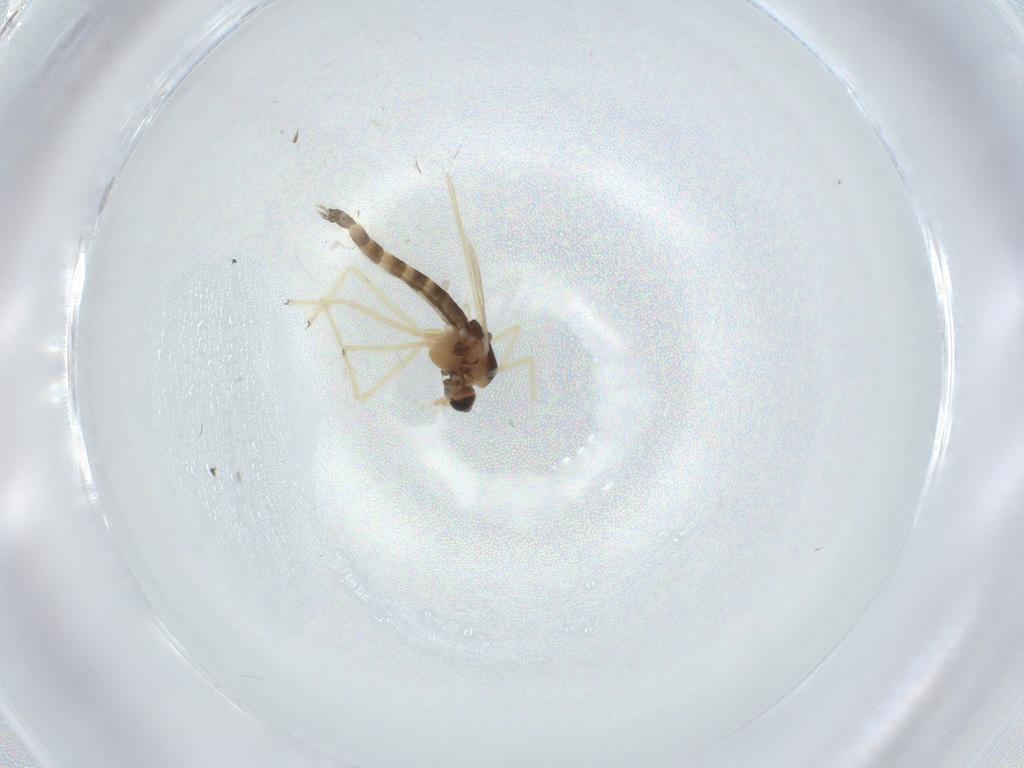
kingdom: Animalia
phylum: Arthropoda
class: Insecta
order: Diptera
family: Chironomidae
